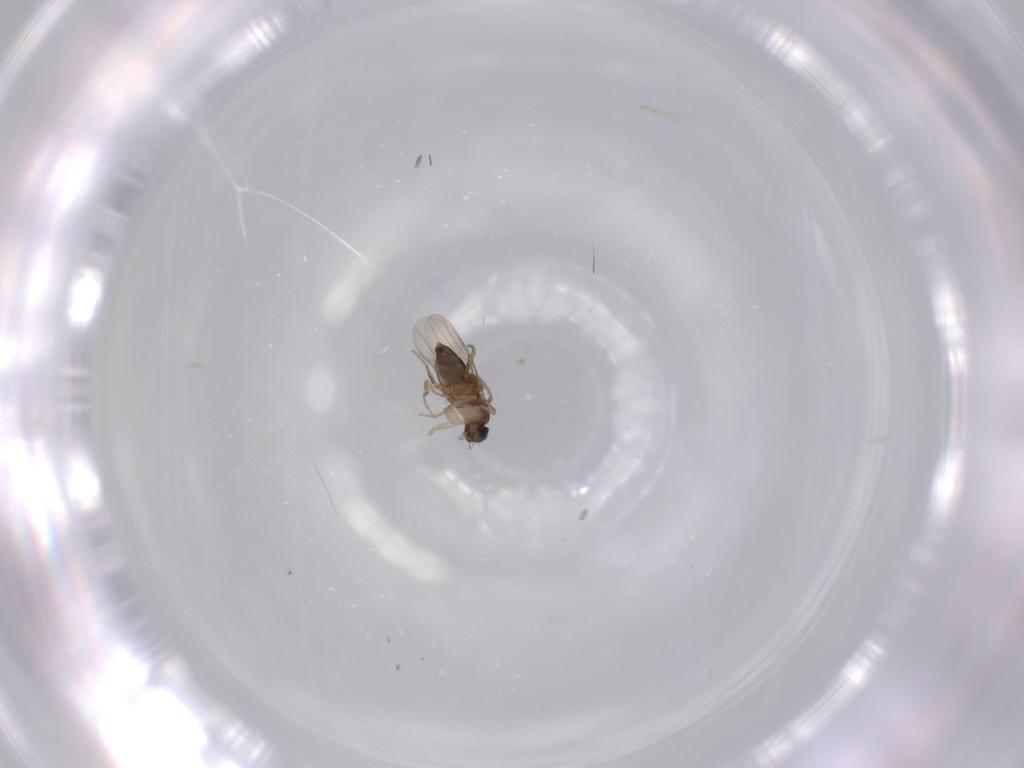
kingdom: Animalia
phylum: Arthropoda
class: Insecta
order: Diptera
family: Phoridae
